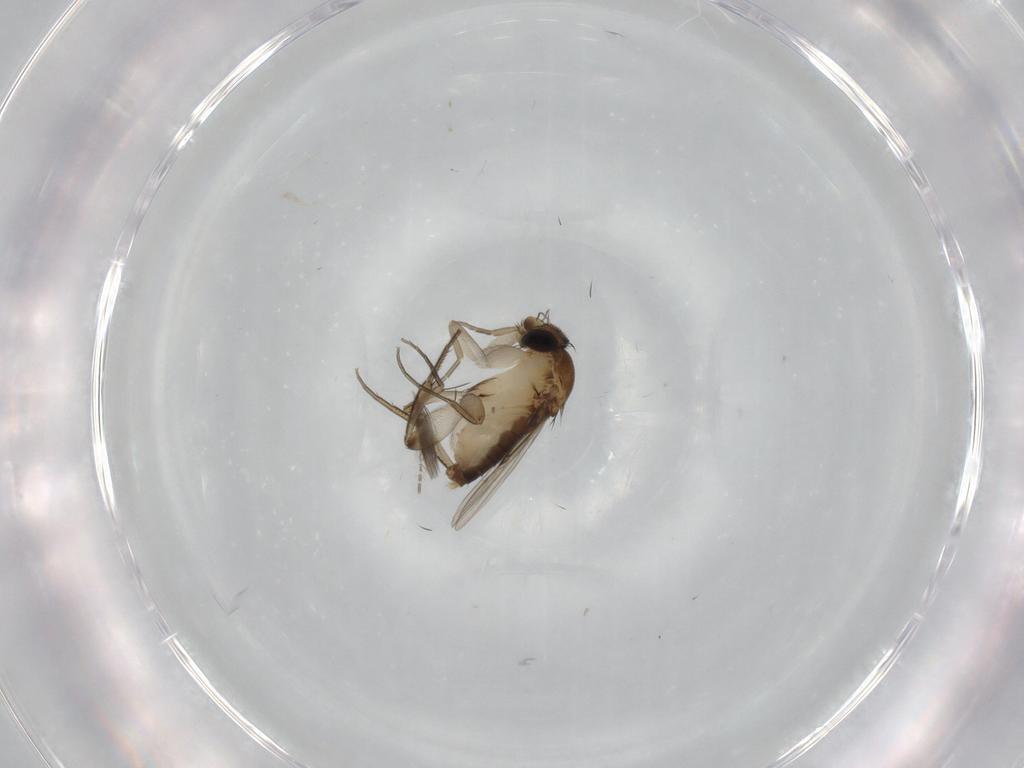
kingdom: Animalia
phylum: Arthropoda
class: Insecta
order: Diptera
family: Phoridae
